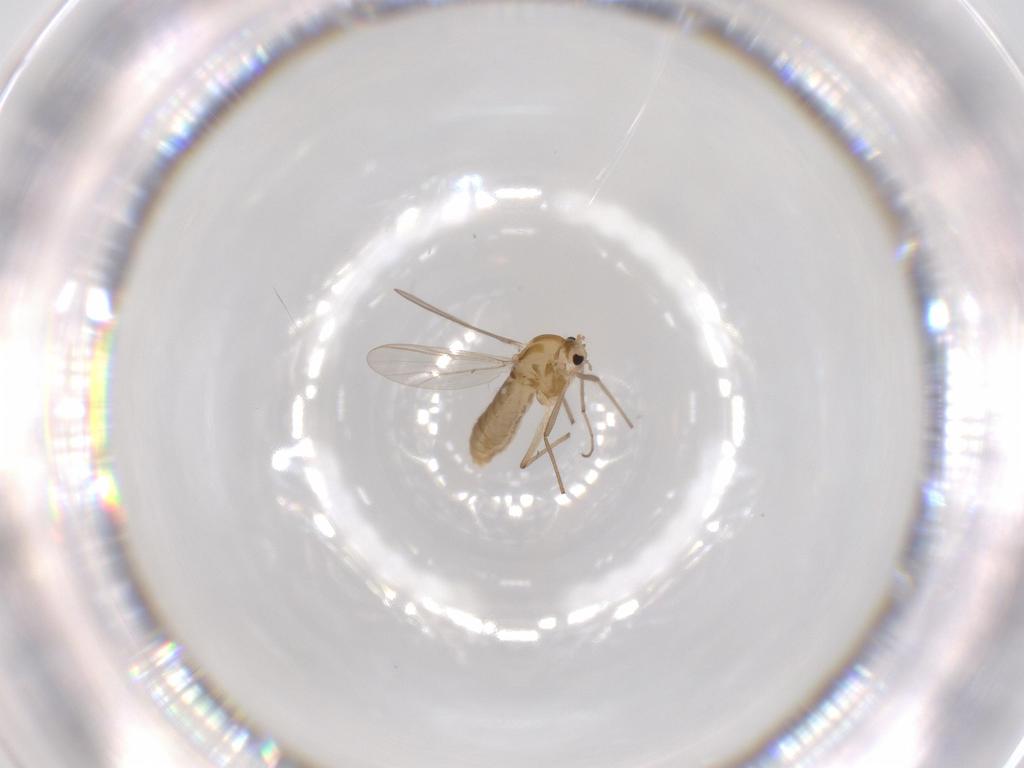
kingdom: Animalia
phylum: Arthropoda
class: Insecta
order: Diptera
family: Chironomidae
